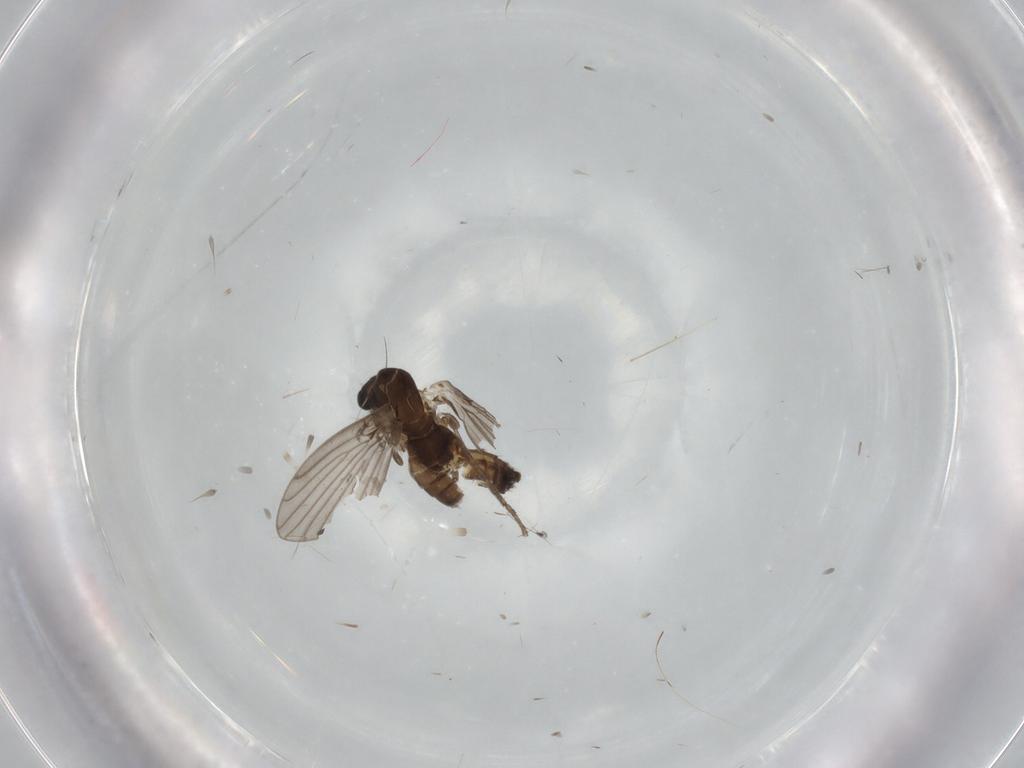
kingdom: Animalia
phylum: Arthropoda
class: Insecta
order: Diptera
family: Cecidomyiidae
